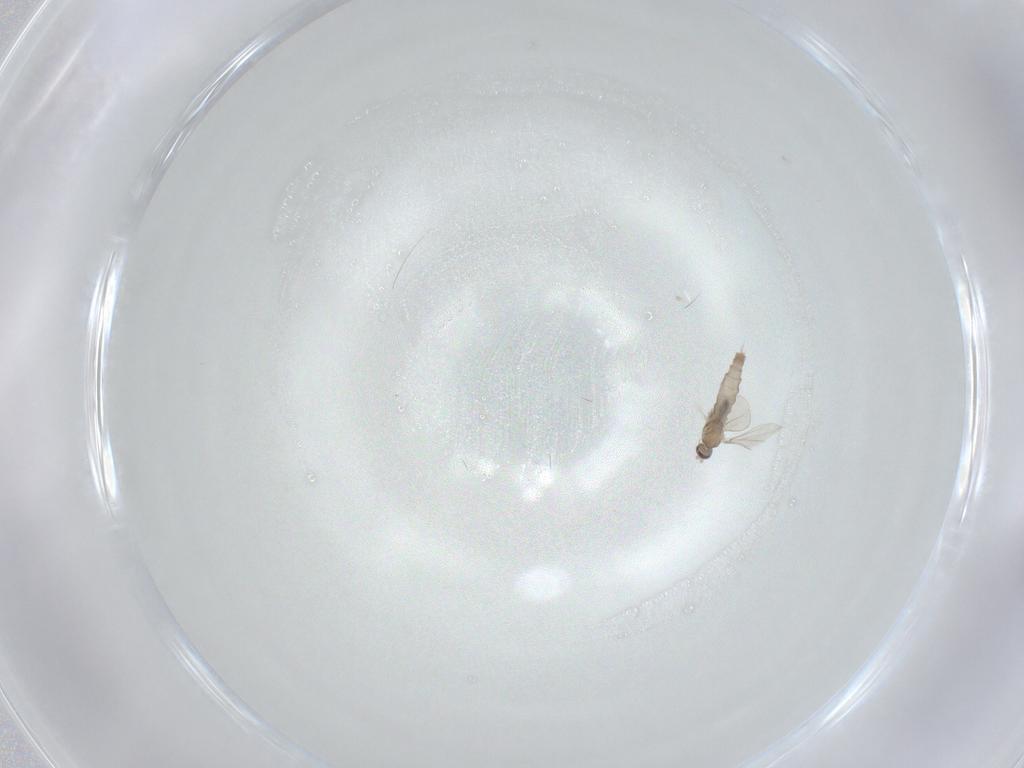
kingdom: Animalia
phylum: Arthropoda
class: Insecta
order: Diptera
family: Cecidomyiidae
